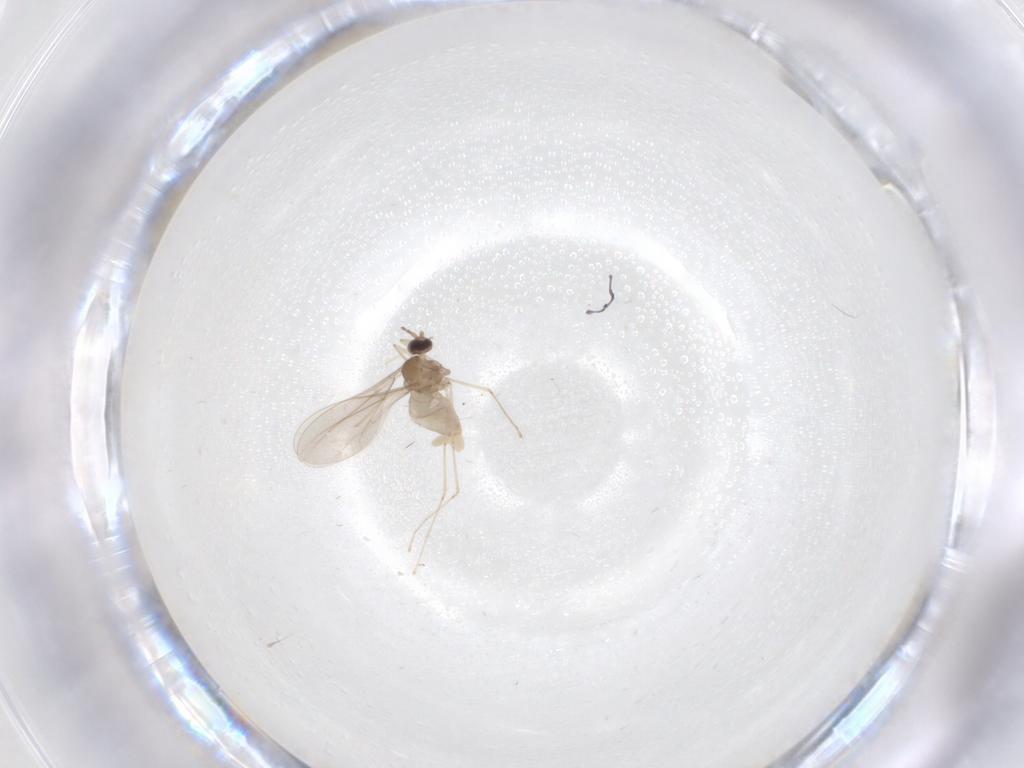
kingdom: Animalia
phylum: Arthropoda
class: Insecta
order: Diptera
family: Cecidomyiidae
